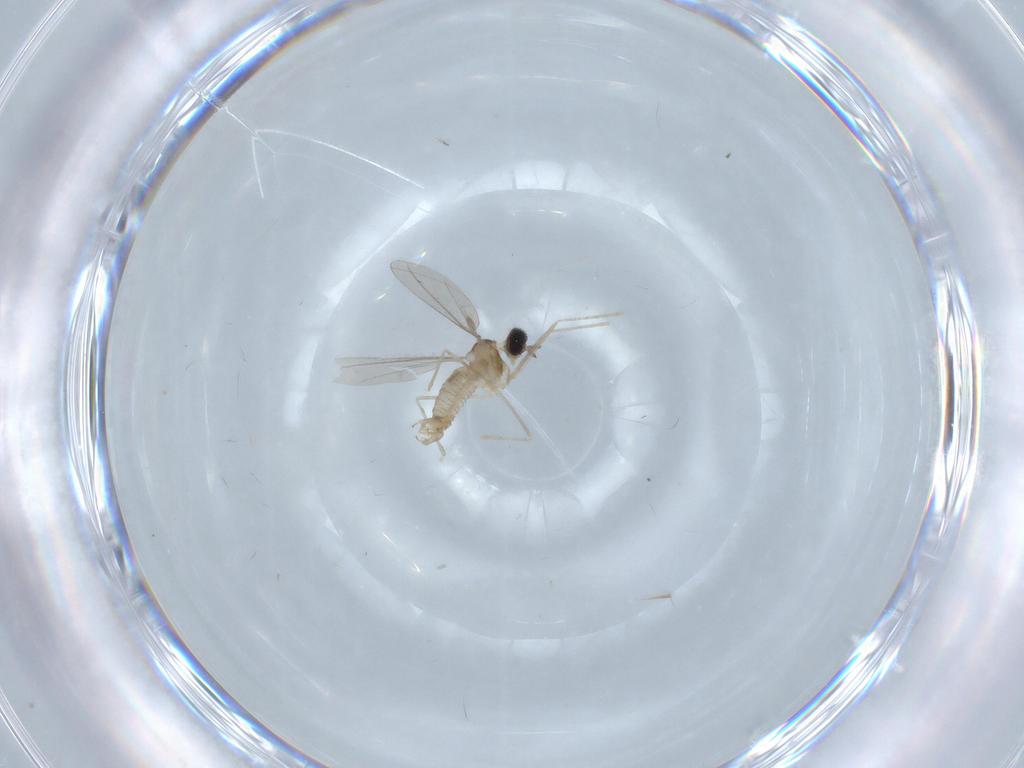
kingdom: Animalia
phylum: Arthropoda
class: Insecta
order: Diptera
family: Cecidomyiidae
